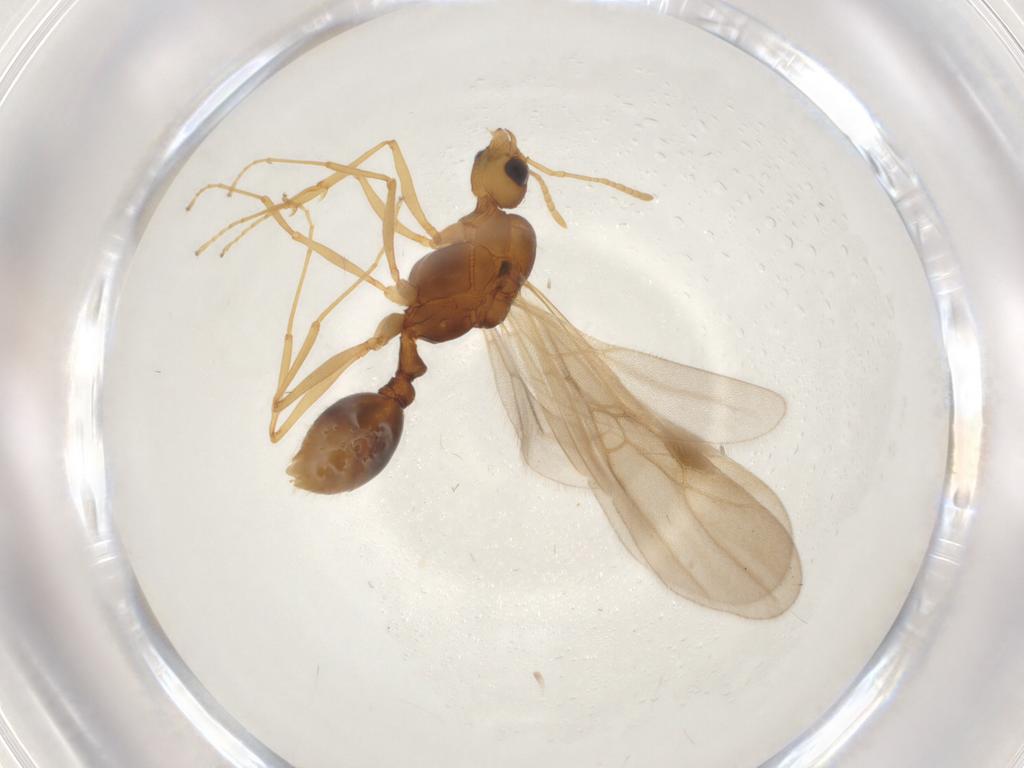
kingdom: Animalia
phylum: Arthropoda
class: Insecta
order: Hymenoptera
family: Formicidae
